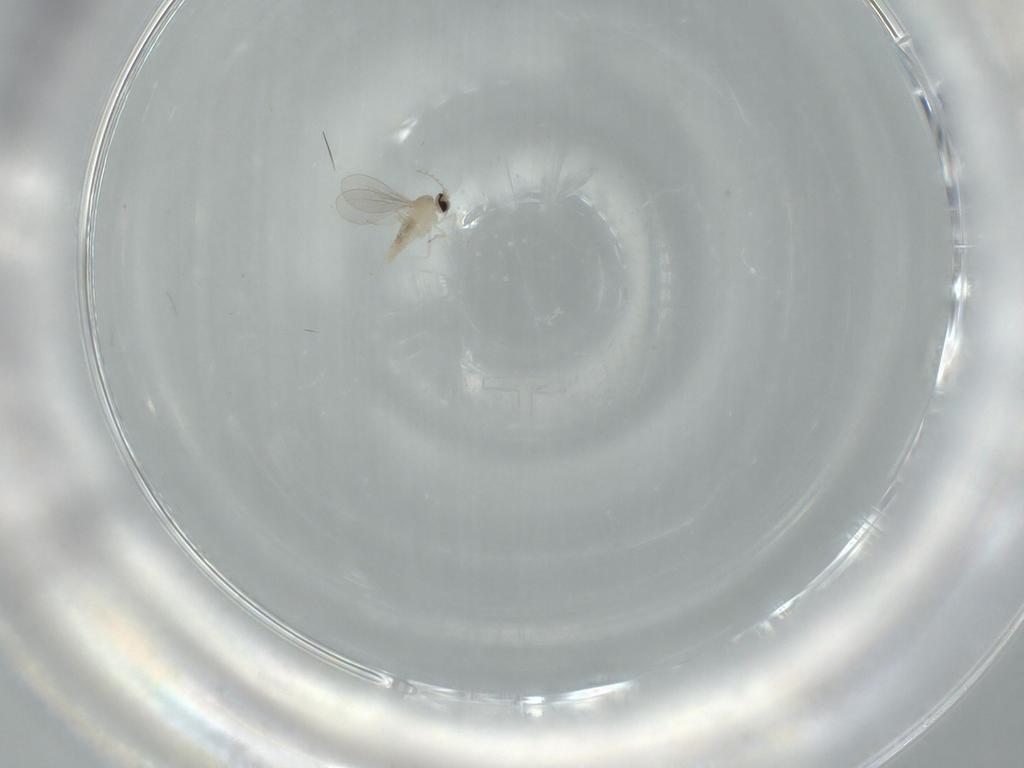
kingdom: Animalia
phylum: Arthropoda
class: Insecta
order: Diptera
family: Cecidomyiidae
